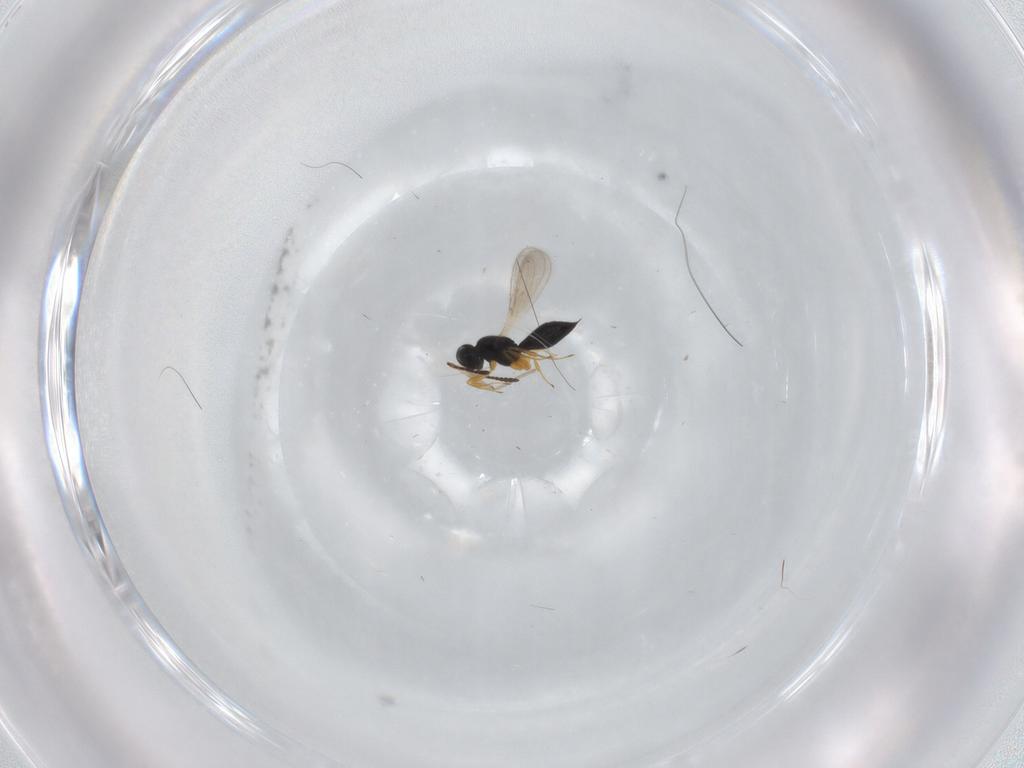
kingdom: Animalia
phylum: Arthropoda
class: Insecta
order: Hymenoptera
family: Scelionidae
